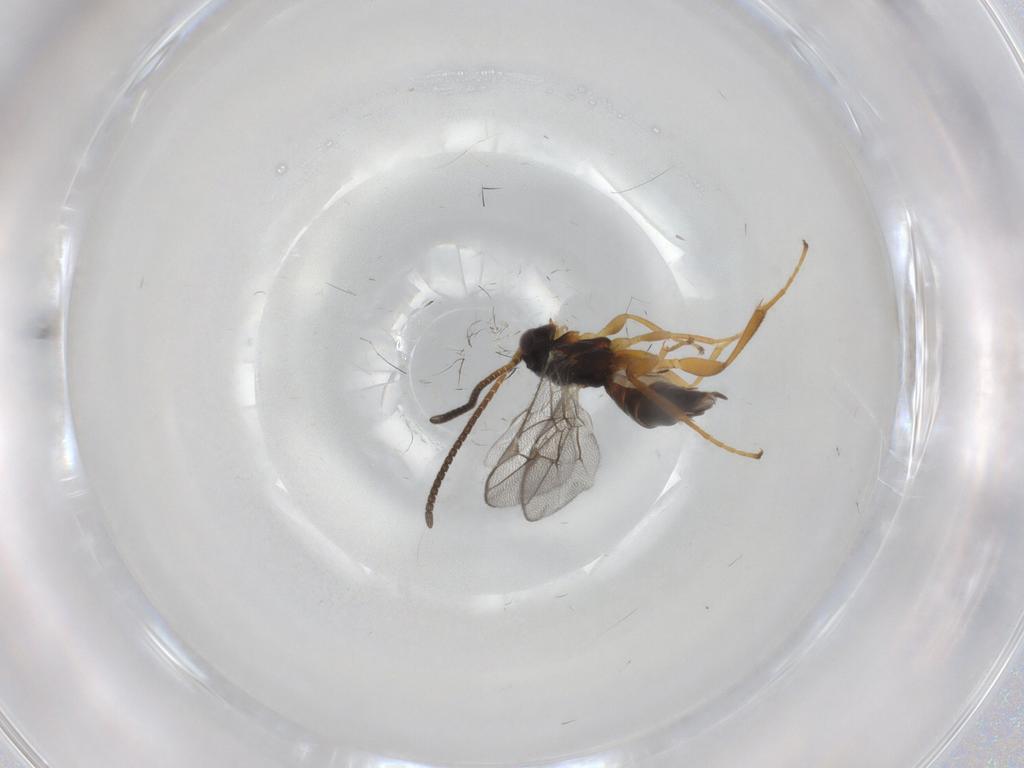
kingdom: Animalia
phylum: Arthropoda
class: Insecta
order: Hymenoptera
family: Ichneumonidae
